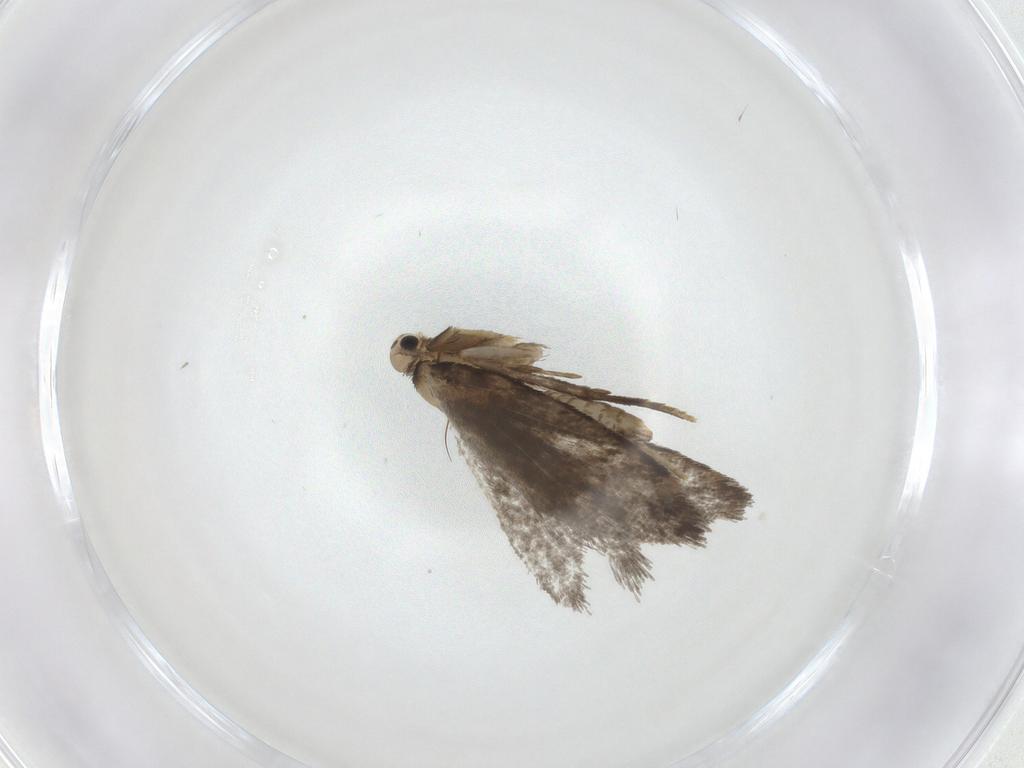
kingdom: Animalia
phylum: Arthropoda
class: Insecta
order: Lepidoptera
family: Psychidae
